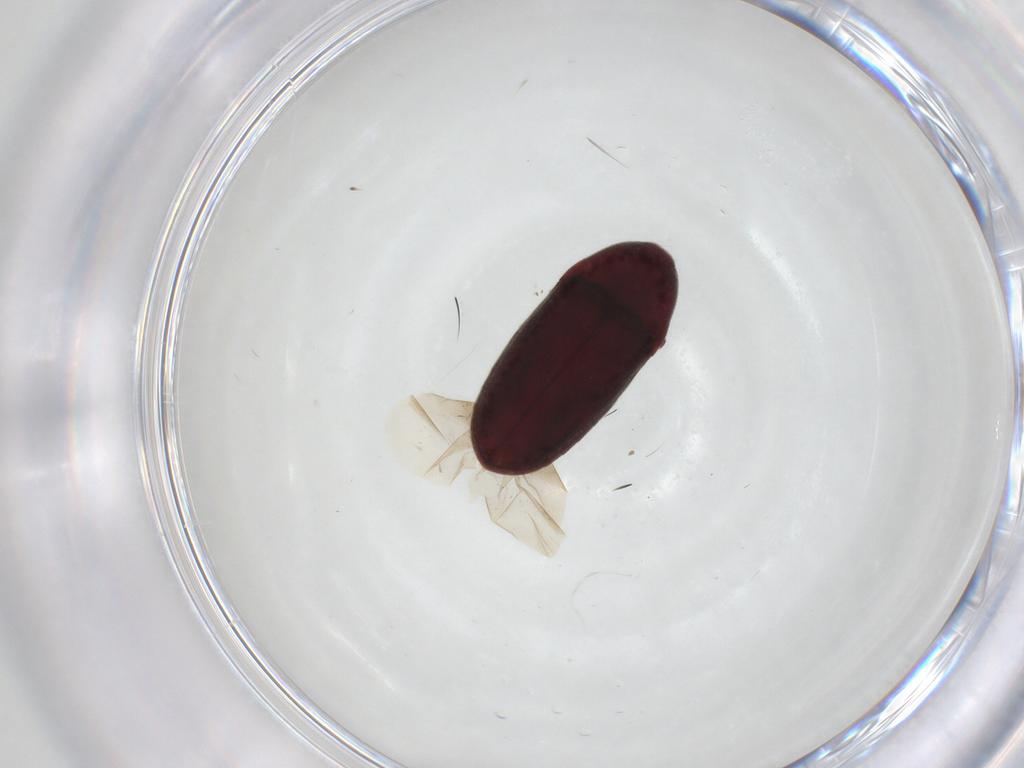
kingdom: Animalia
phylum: Arthropoda
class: Insecta
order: Coleoptera
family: Throscidae
